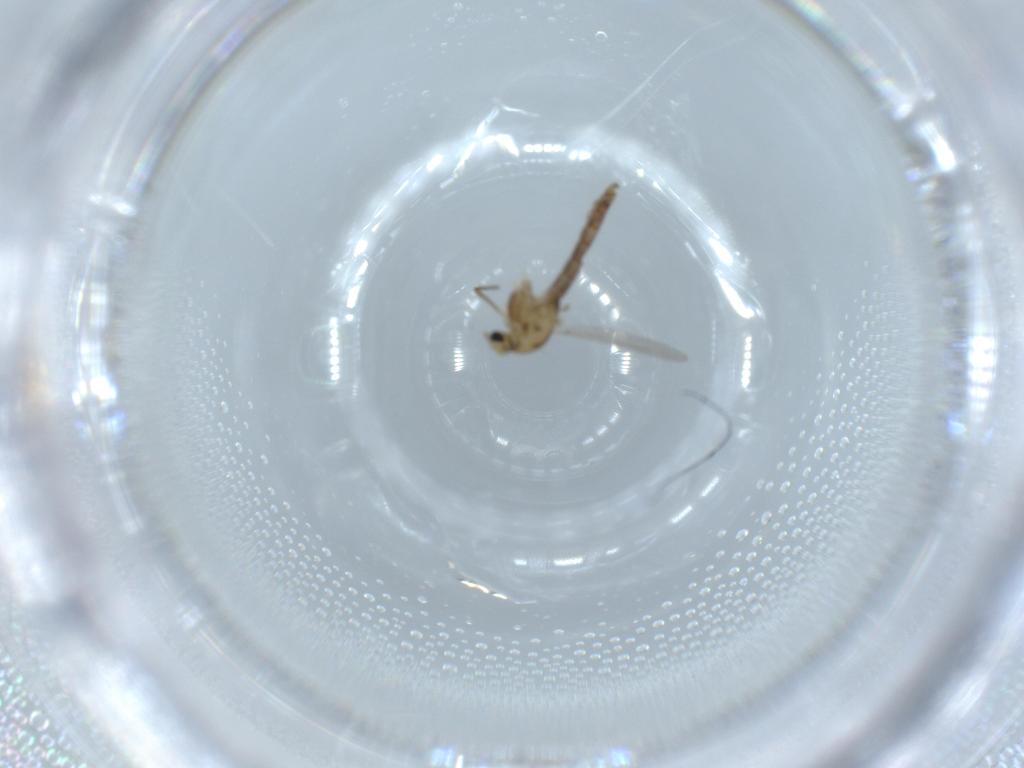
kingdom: Animalia
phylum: Arthropoda
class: Insecta
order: Diptera
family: Chironomidae
